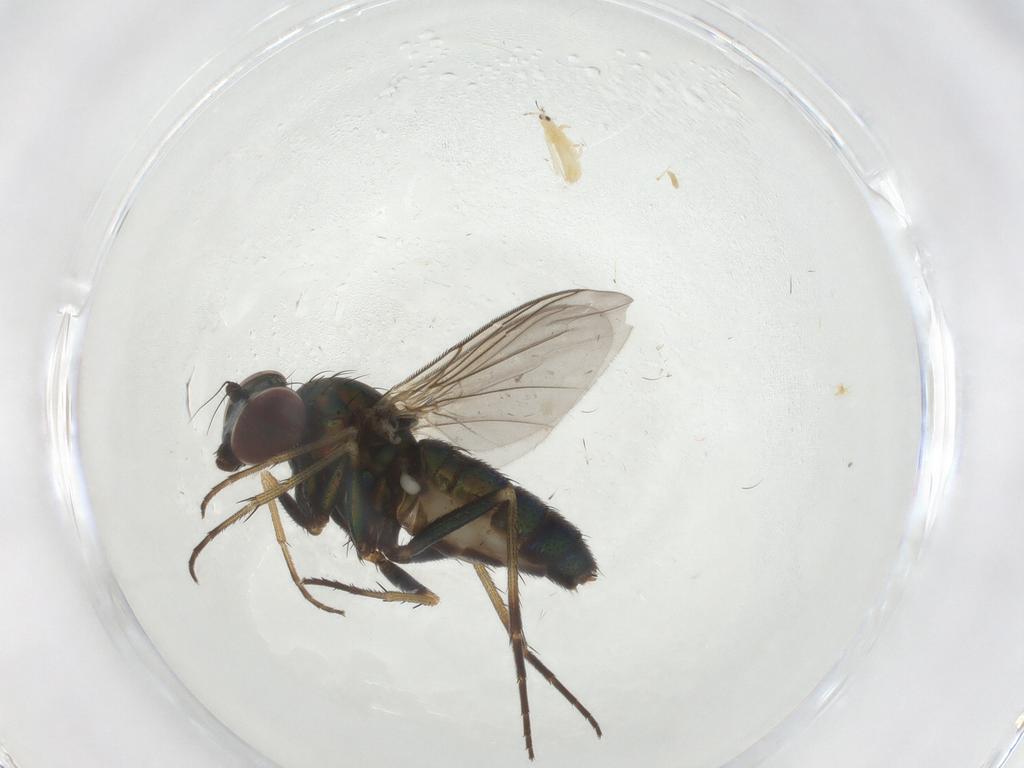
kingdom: Animalia
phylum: Arthropoda
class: Insecta
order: Diptera
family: Dolichopodidae
